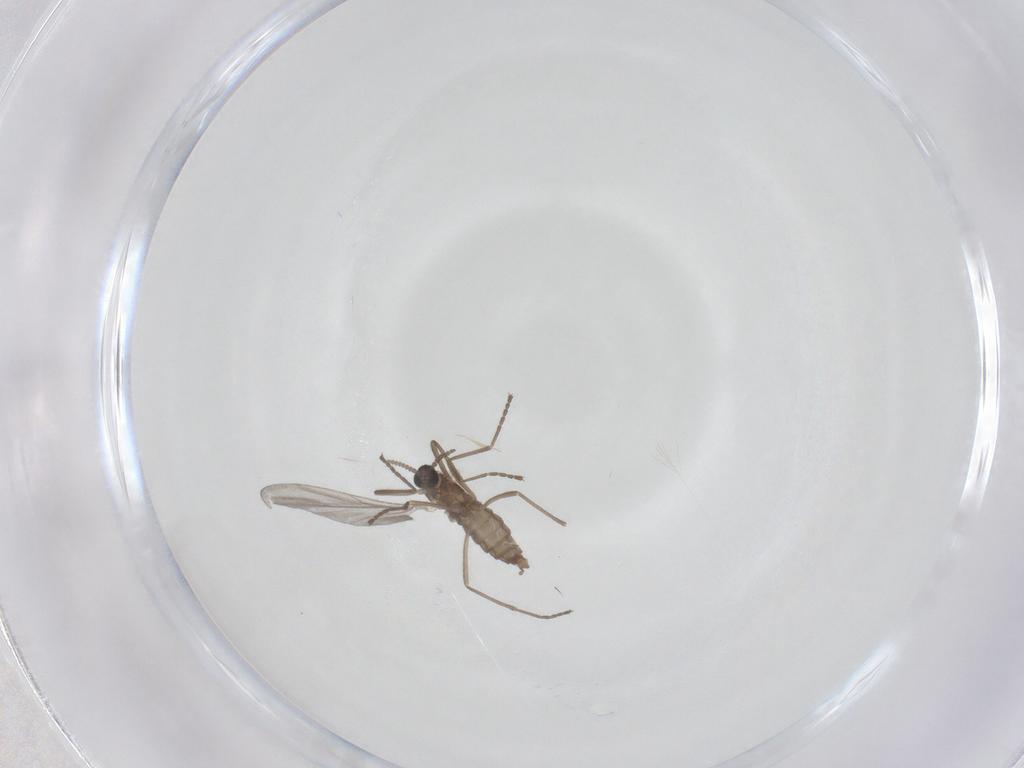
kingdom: Animalia
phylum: Arthropoda
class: Insecta
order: Diptera
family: Cecidomyiidae
